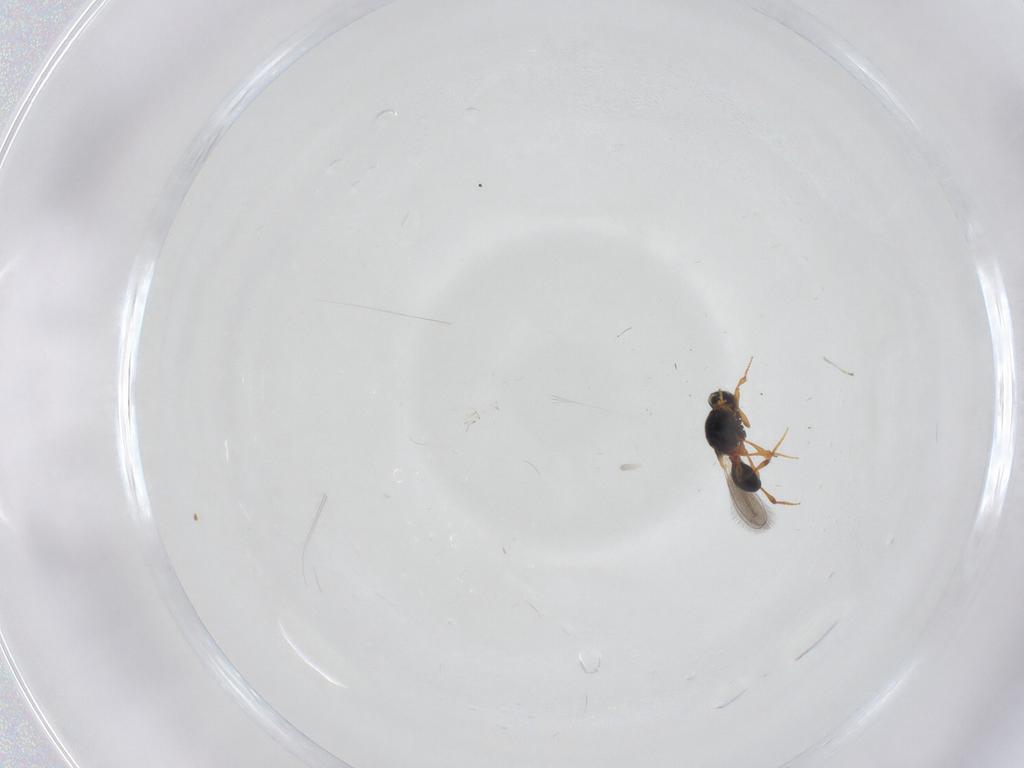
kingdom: Animalia
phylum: Arthropoda
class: Insecta
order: Hymenoptera
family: Platygastridae
